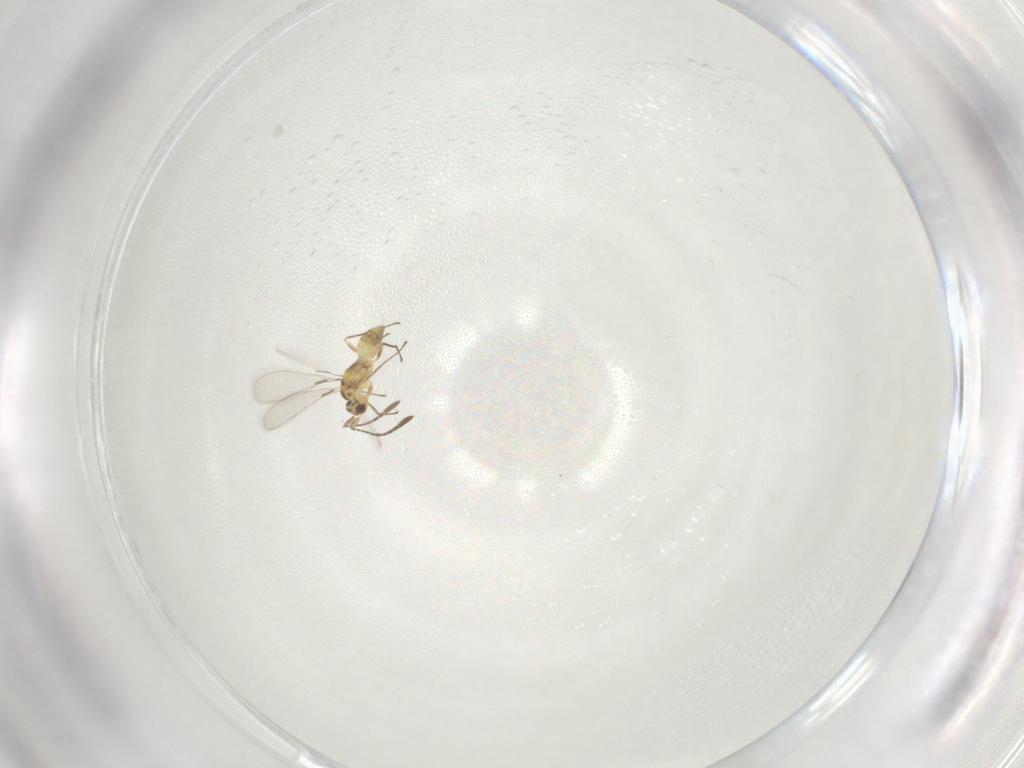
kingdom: Animalia
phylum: Arthropoda
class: Insecta
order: Hymenoptera
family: Mymaridae
